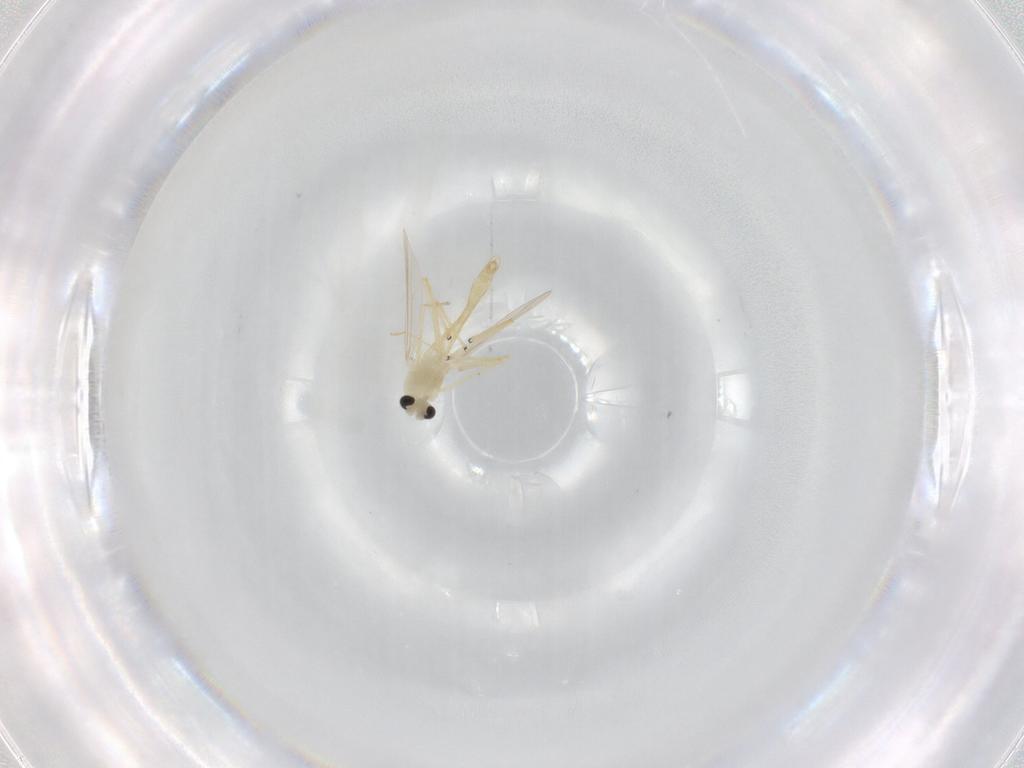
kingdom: Animalia
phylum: Arthropoda
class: Insecta
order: Diptera
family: Chironomidae
